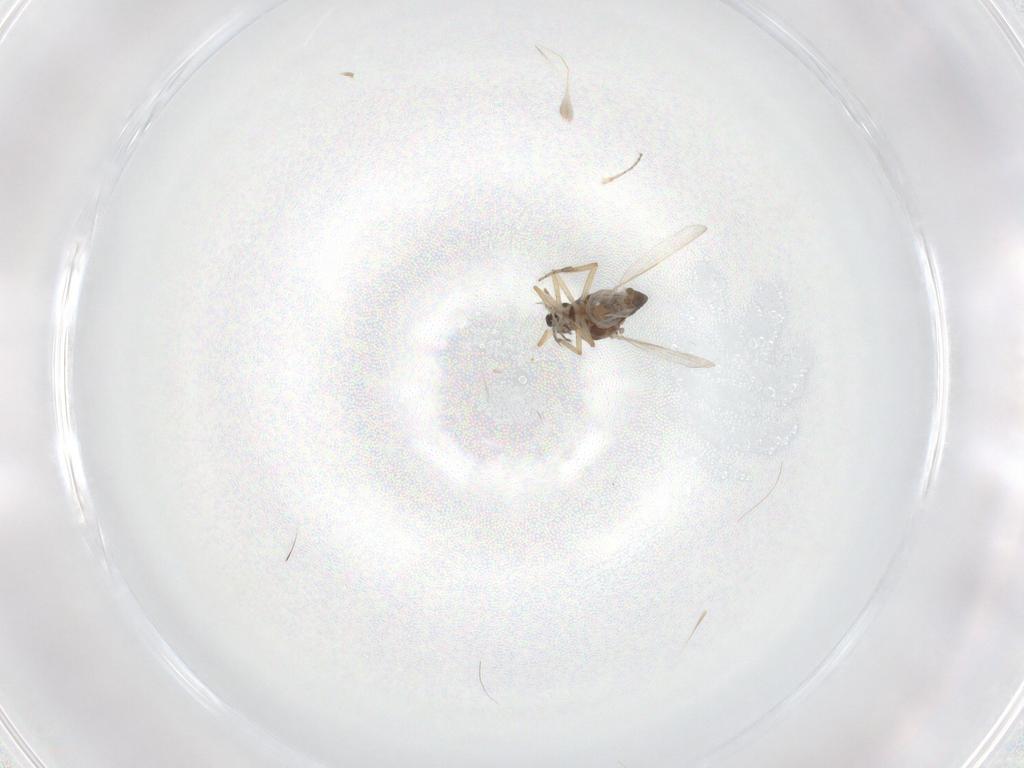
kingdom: Animalia
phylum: Arthropoda
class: Insecta
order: Diptera
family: Ceratopogonidae
